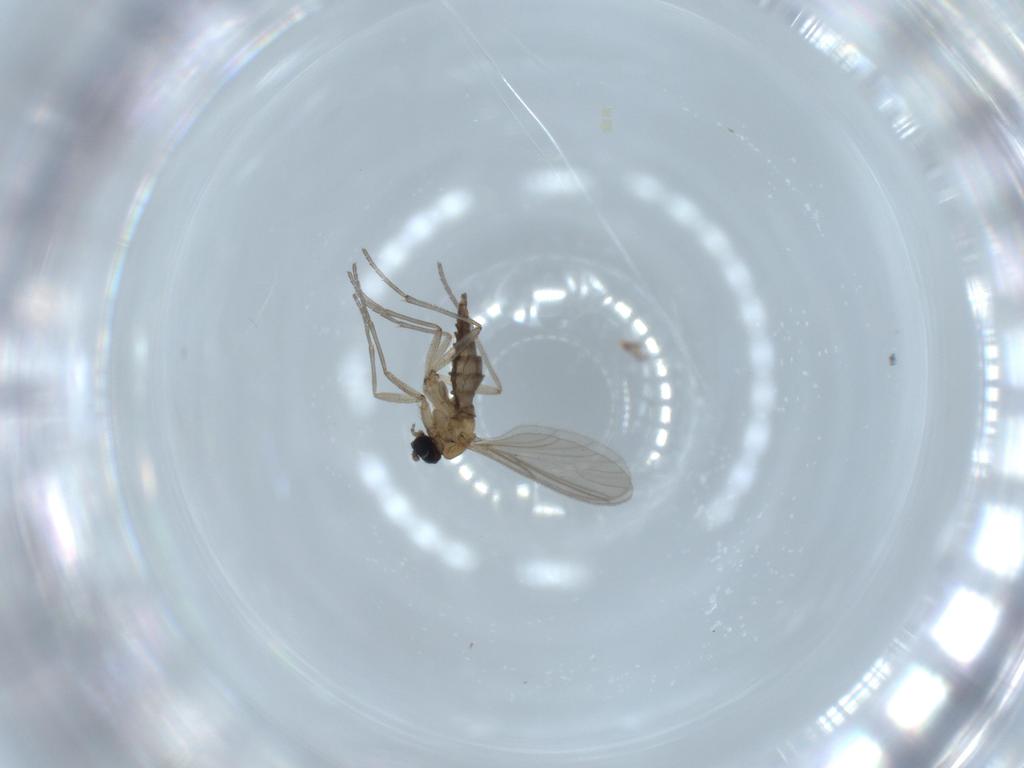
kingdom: Animalia
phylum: Arthropoda
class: Insecta
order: Diptera
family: Sciaridae
